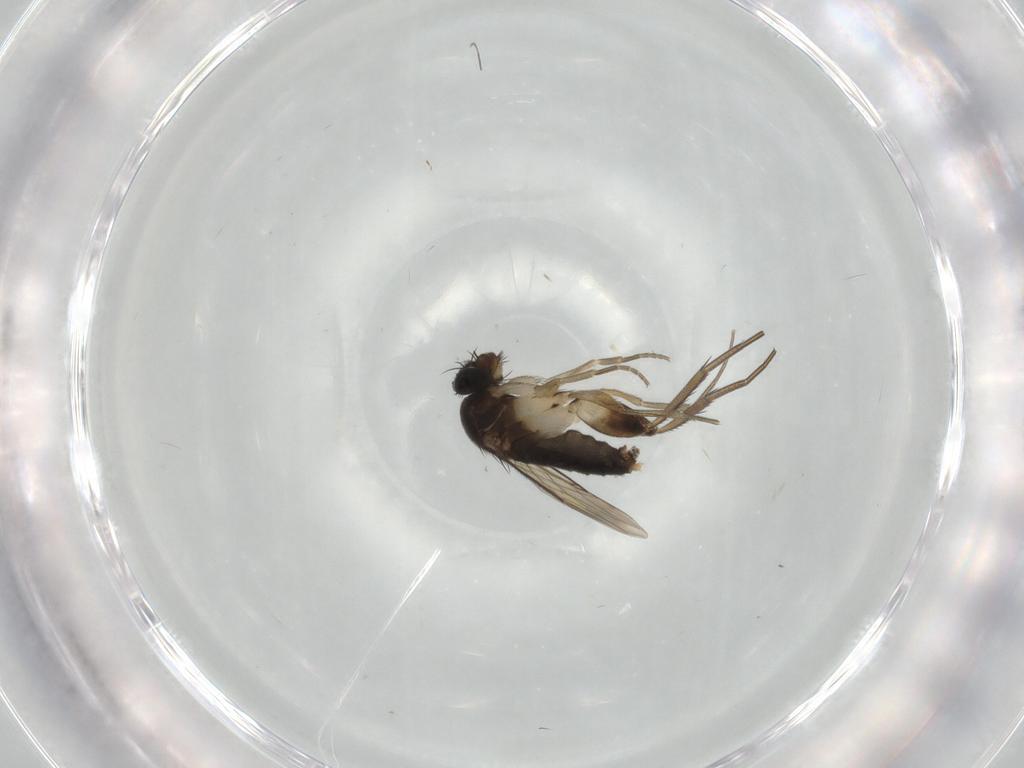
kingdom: Animalia
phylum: Arthropoda
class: Insecta
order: Diptera
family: Phoridae
